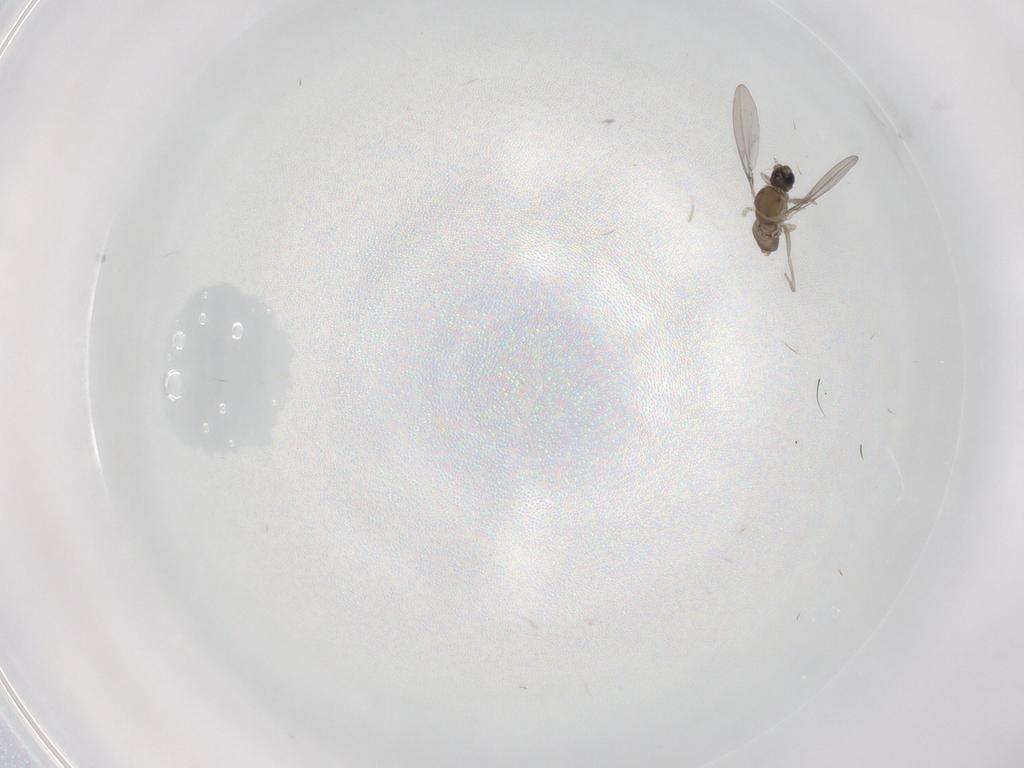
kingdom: Animalia
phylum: Arthropoda
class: Insecta
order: Diptera
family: Cecidomyiidae
